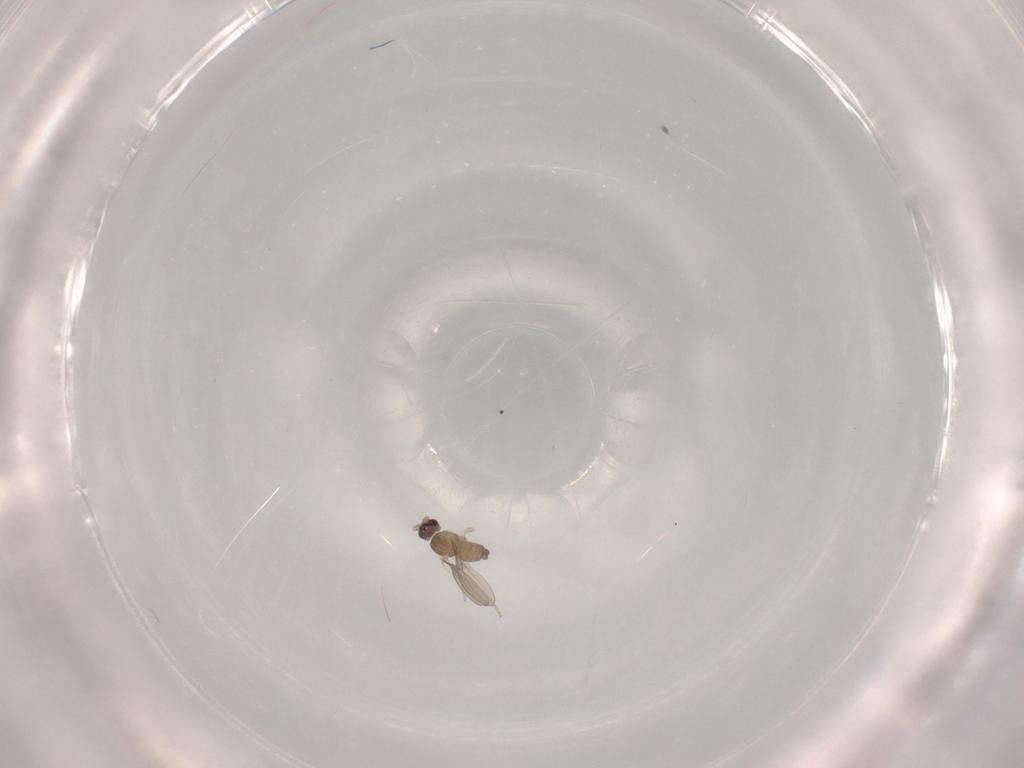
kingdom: Animalia
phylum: Arthropoda
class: Insecta
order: Diptera
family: Cecidomyiidae
